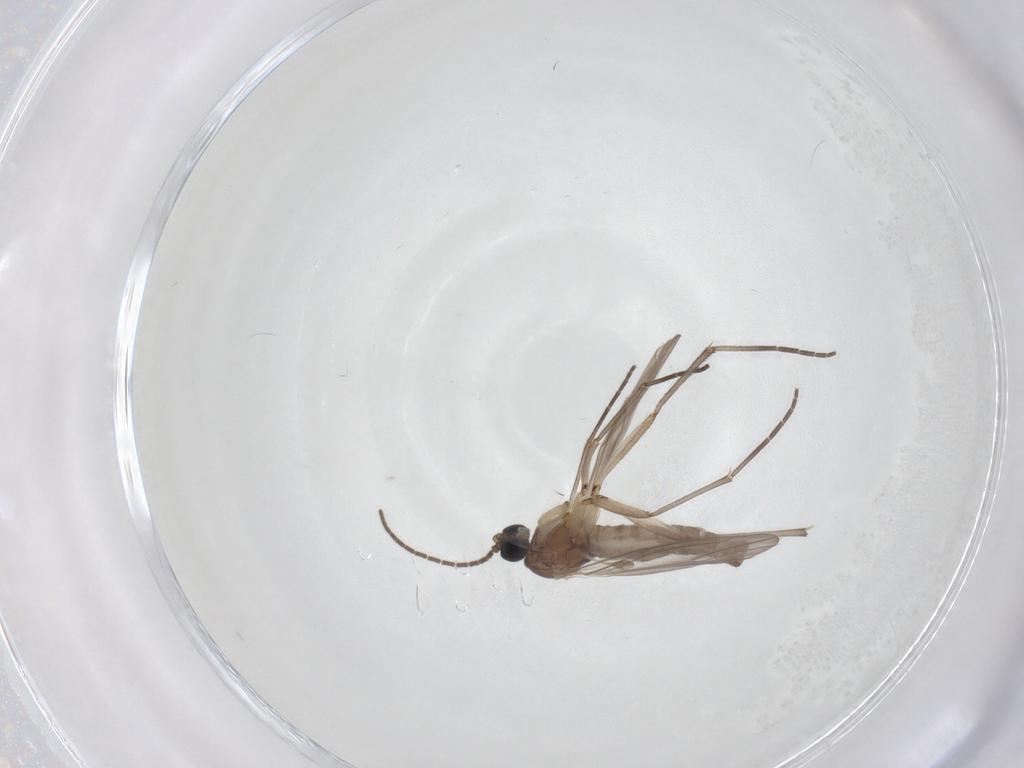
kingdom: Animalia
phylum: Arthropoda
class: Insecta
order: Diptera
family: Sciaridae
